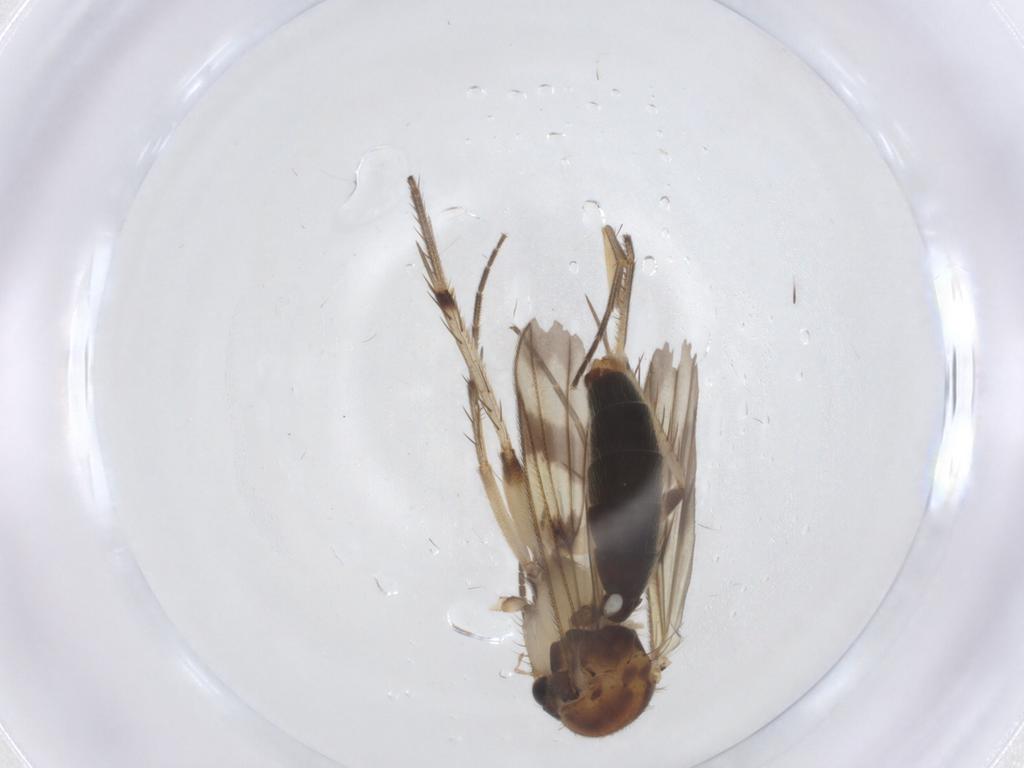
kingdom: Animalia
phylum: Arthropoda
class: Insecta
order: Diptera
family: Mycetophilidae
